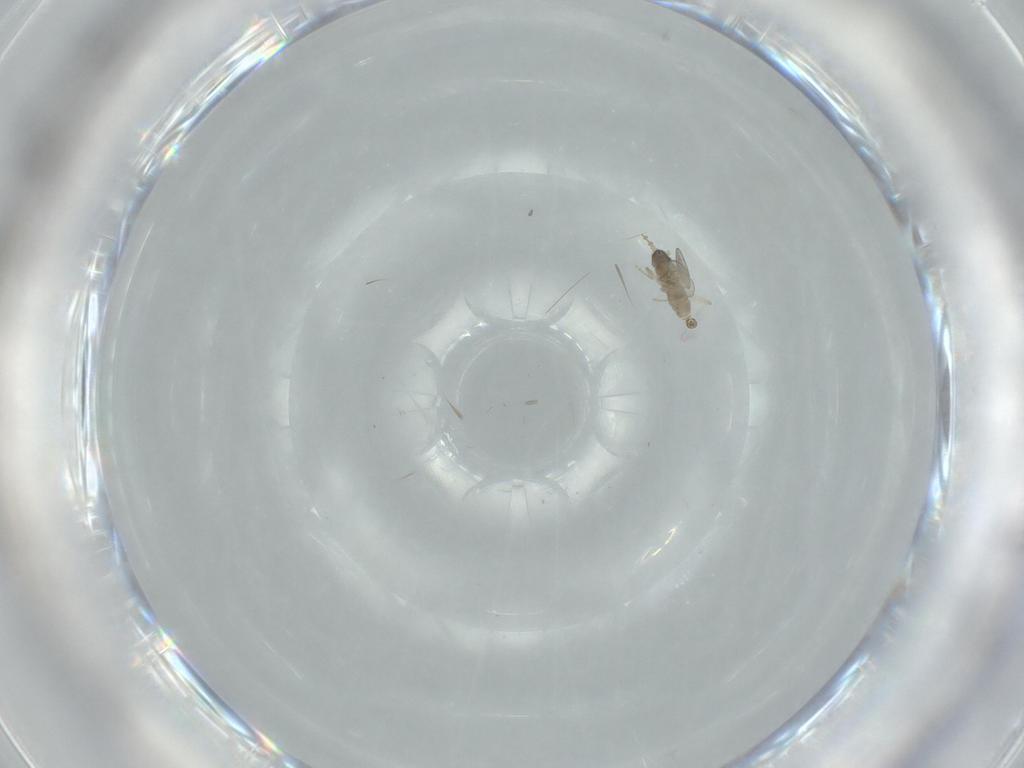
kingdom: Animalia
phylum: Arthropoda
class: Insecta
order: Diptera
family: Cecidomyiidae
